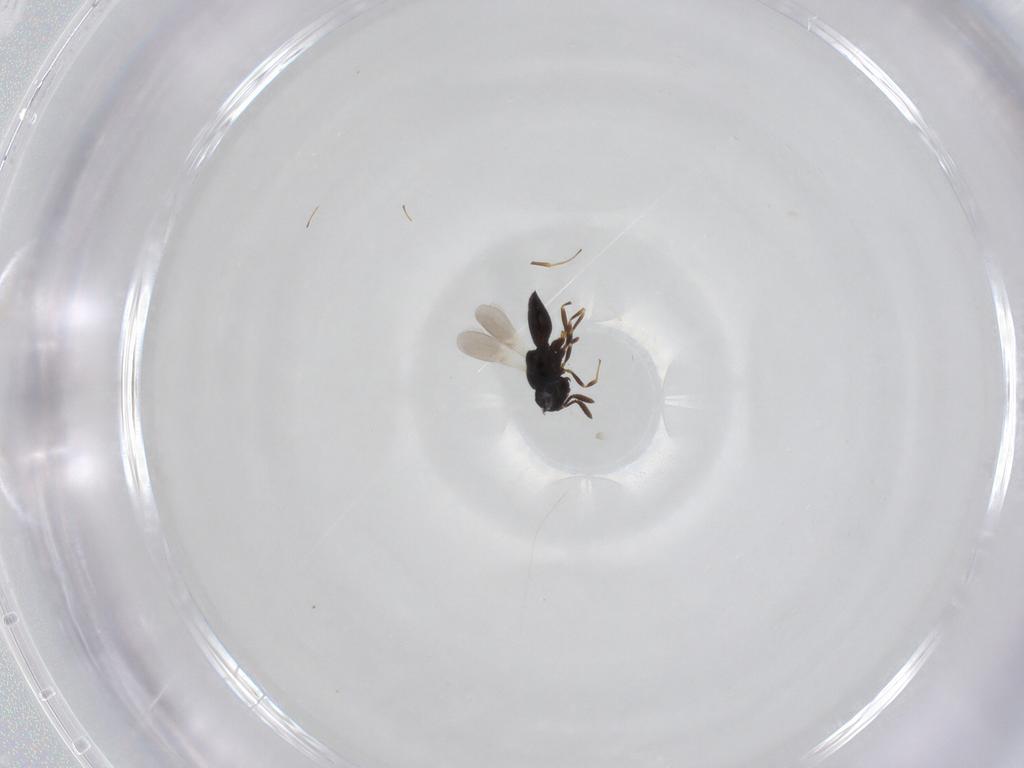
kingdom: Animalia
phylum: Arthropoda
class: Insecta
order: Hymenoptera
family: Scelionidae
